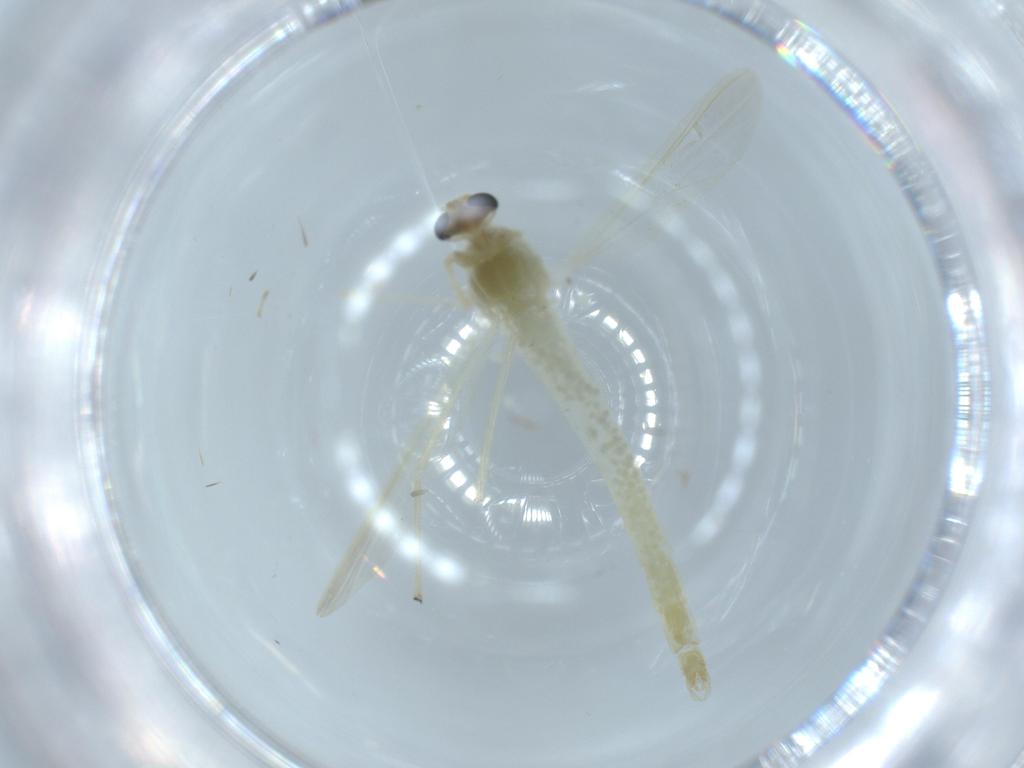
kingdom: Animalia
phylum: Arthropoda
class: Insecta
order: Diptera
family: Chironomidae
